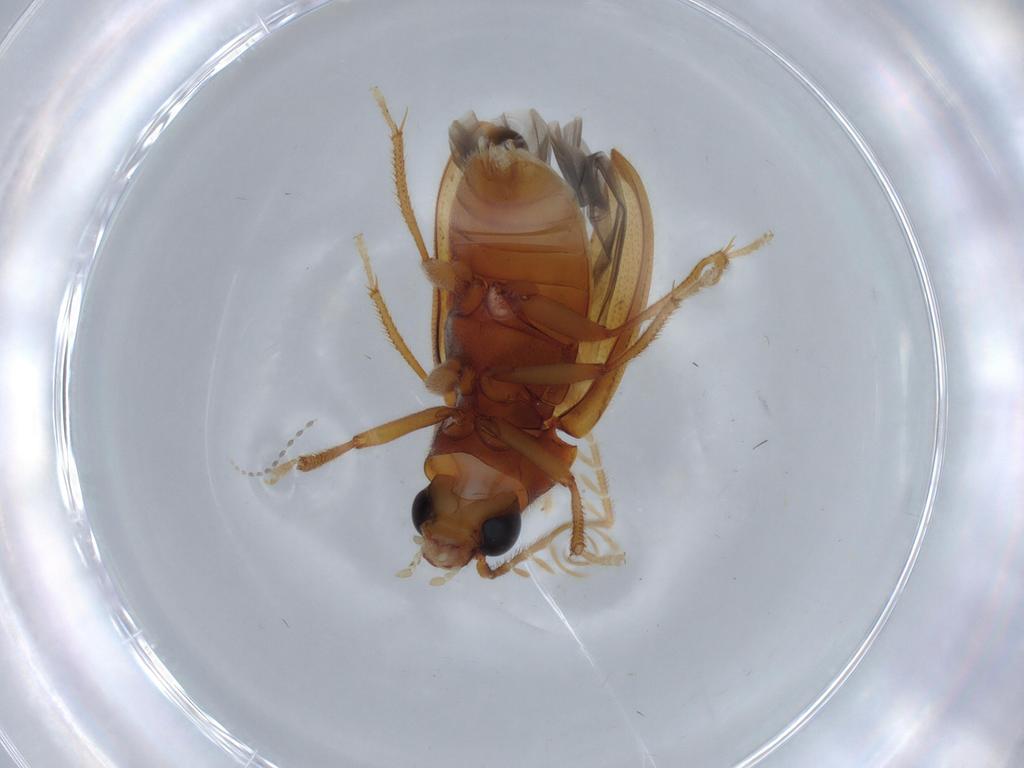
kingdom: Animalia
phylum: Arthropoda
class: Insecta
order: Coleoptera
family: Ptilodactylidae
